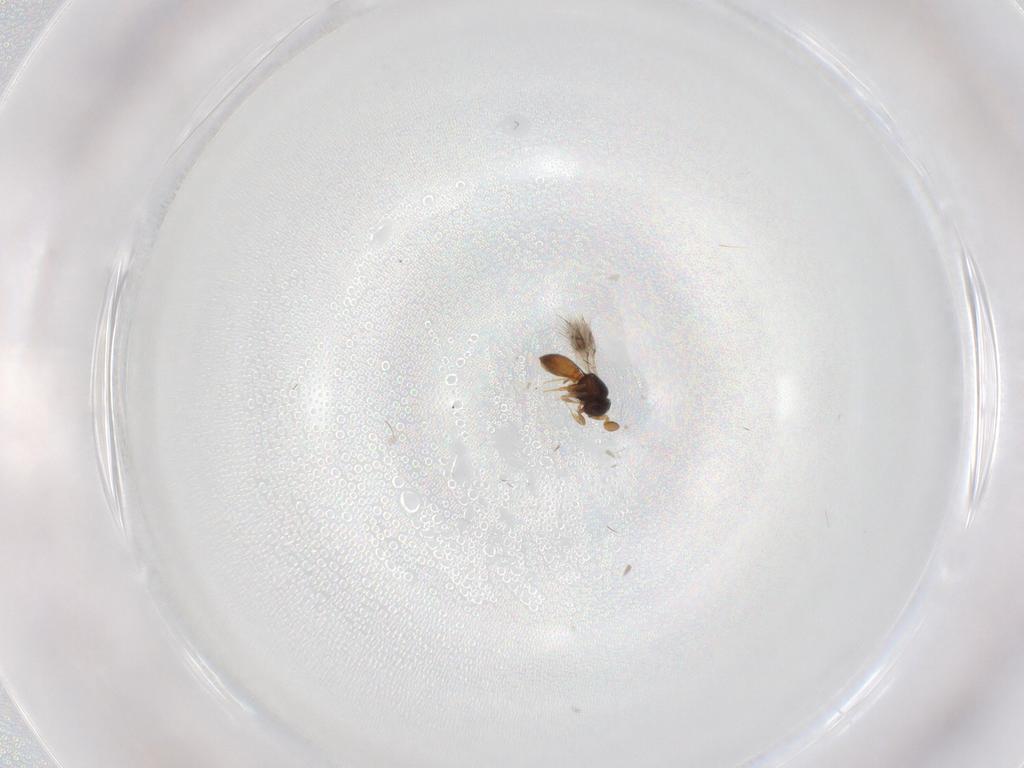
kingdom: Animalia
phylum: Arthropoda
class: Insecta
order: Hymenoptera
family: Scelionidae
